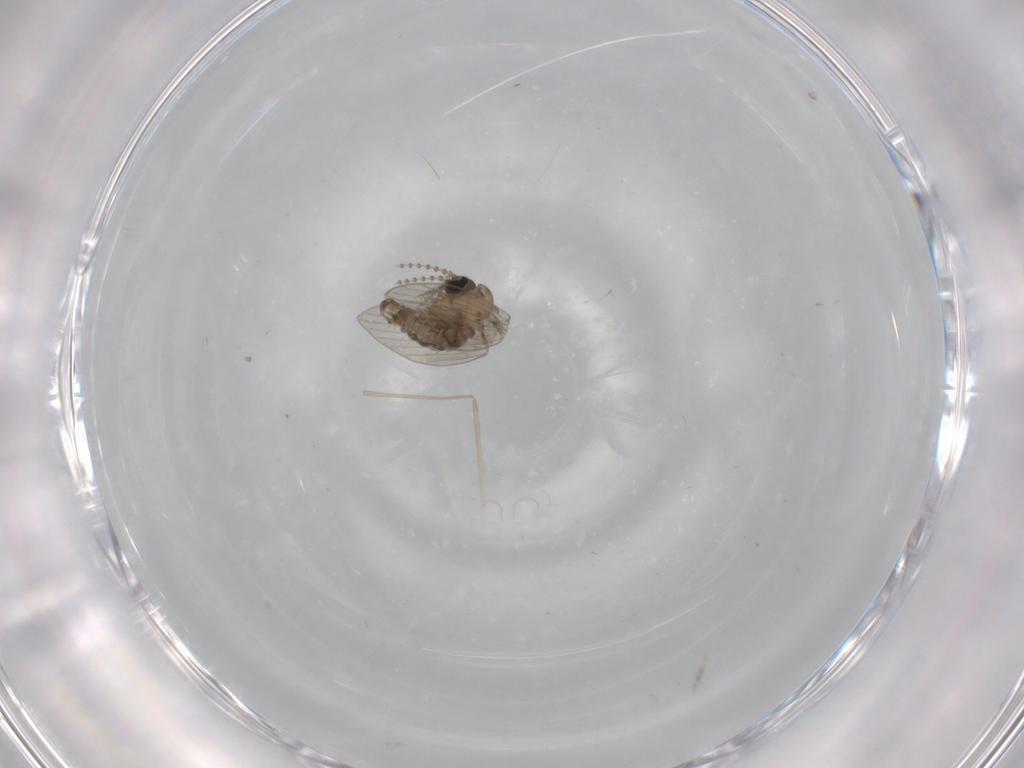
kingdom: Animalia
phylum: Arthropoda
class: Insecta
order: Diptera
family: Psychodidae
